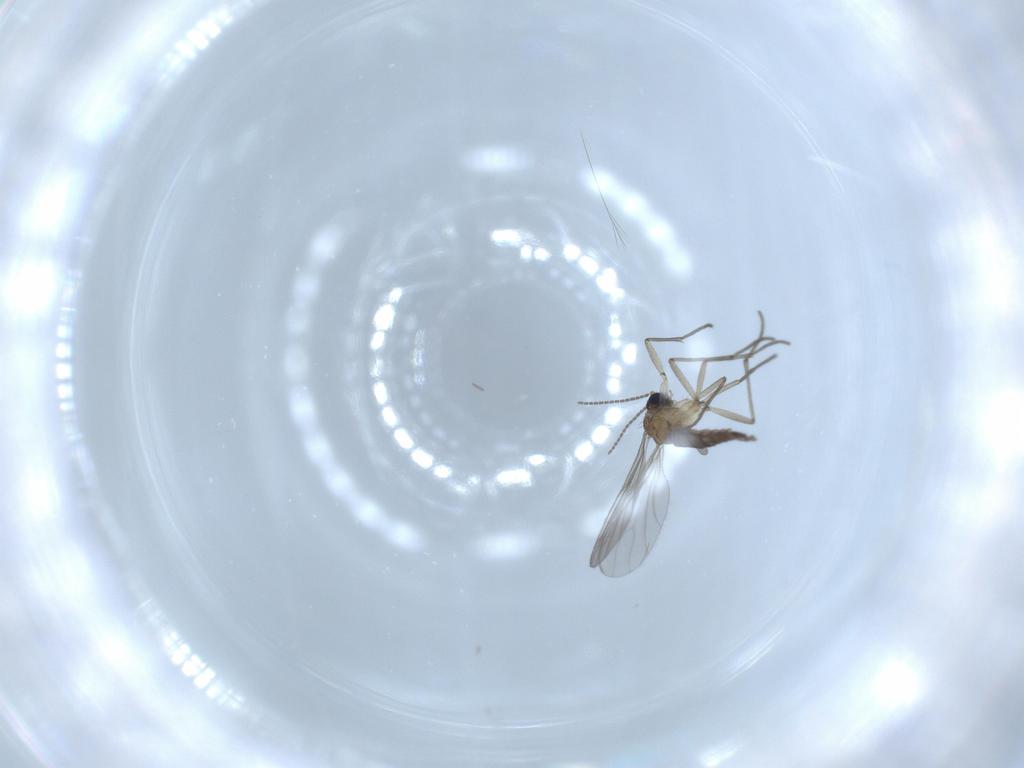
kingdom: Animalia
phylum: Arthropoda
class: Insecta
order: Diptera
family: Sciaridae
